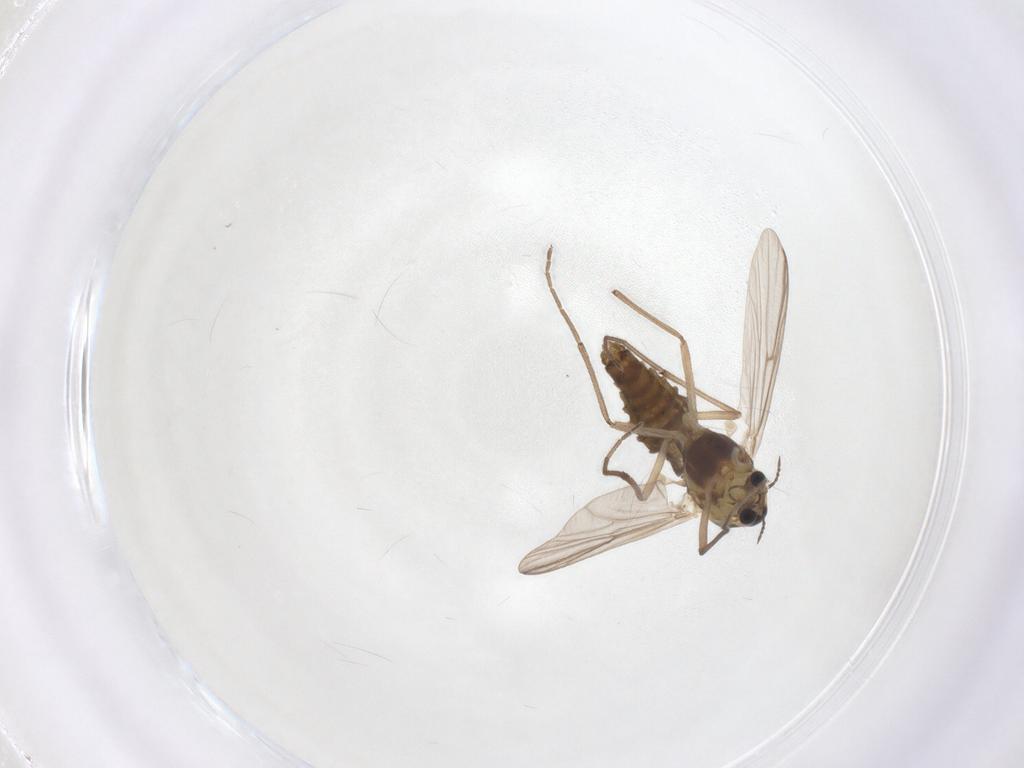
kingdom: Animalia
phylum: Arthropoda
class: Insecta
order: Diptera
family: Chironomidae
